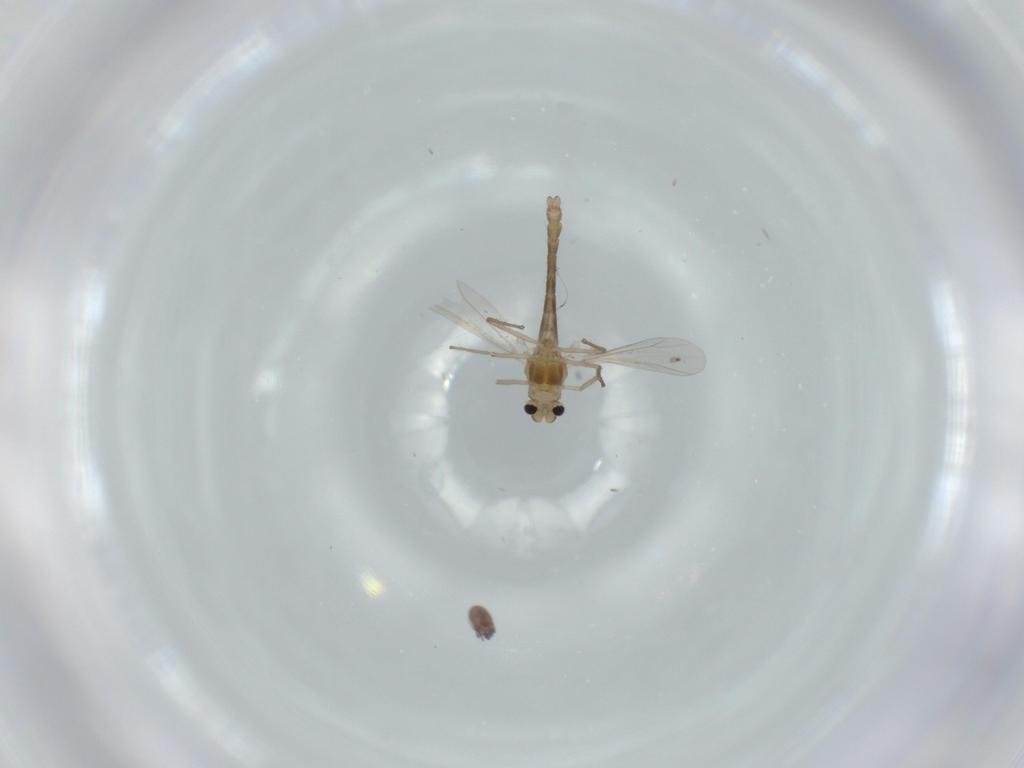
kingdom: Animalia
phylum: Arthropoda
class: Insecta
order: Diptera
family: Chironomidae
